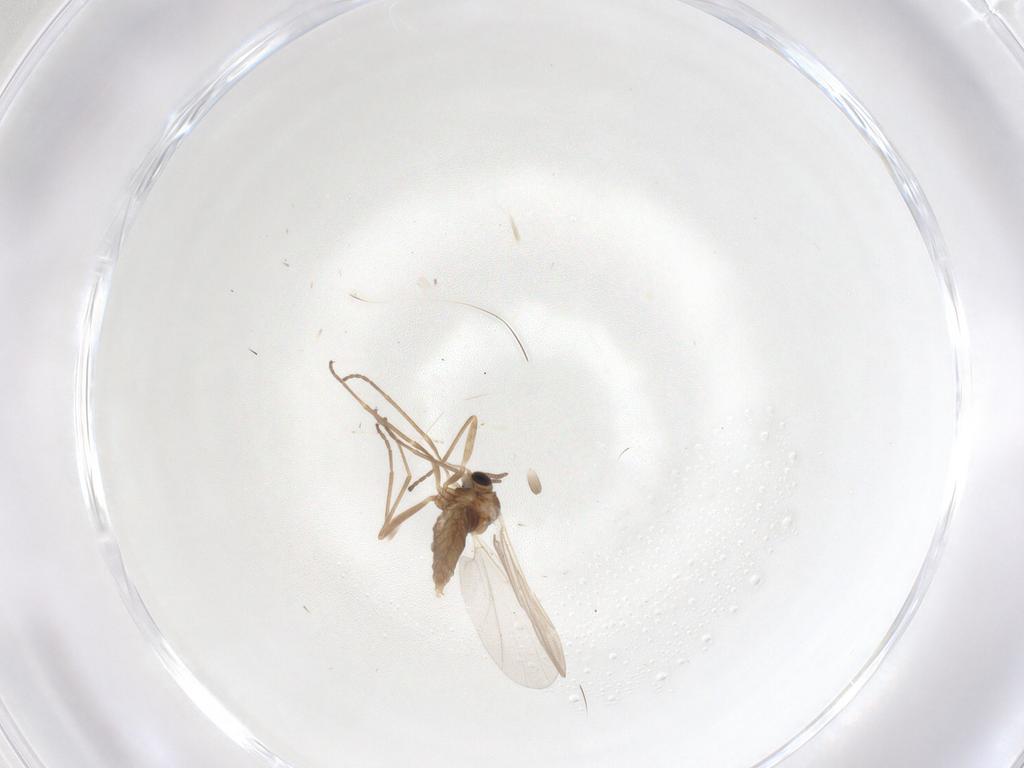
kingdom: Animalia
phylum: Arthropoda
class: Insecta
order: Diptera
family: Cecidomyiidae
